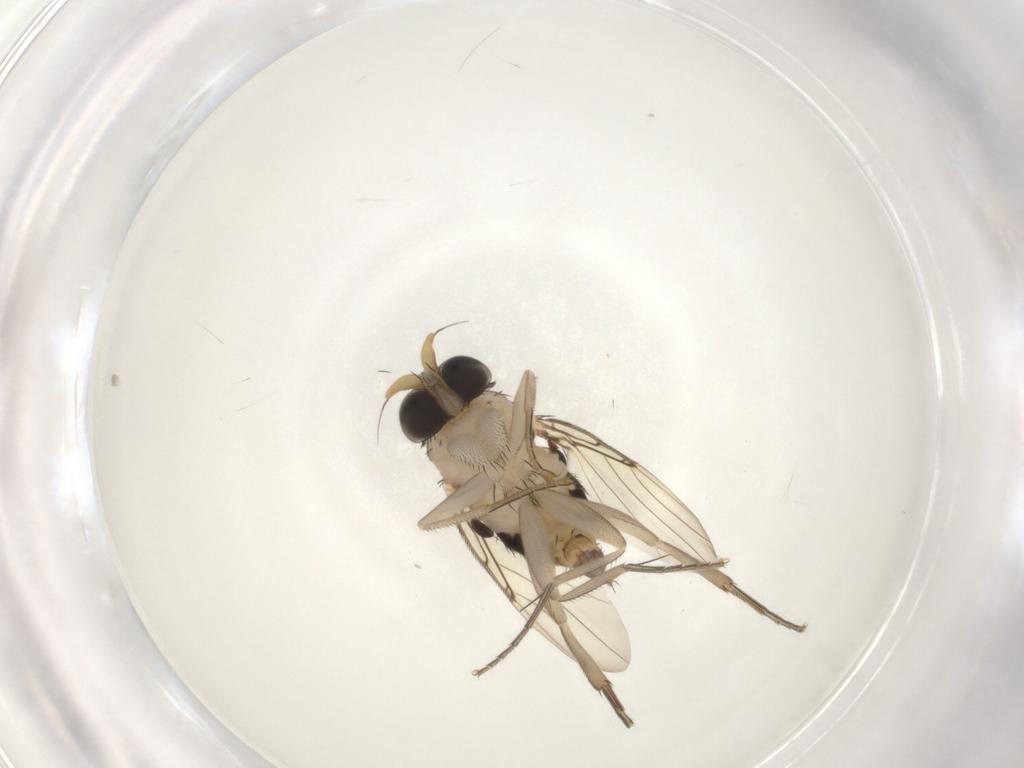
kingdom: Animalia
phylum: Arthropoda
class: Insecta
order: Diptera
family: Phoridae
